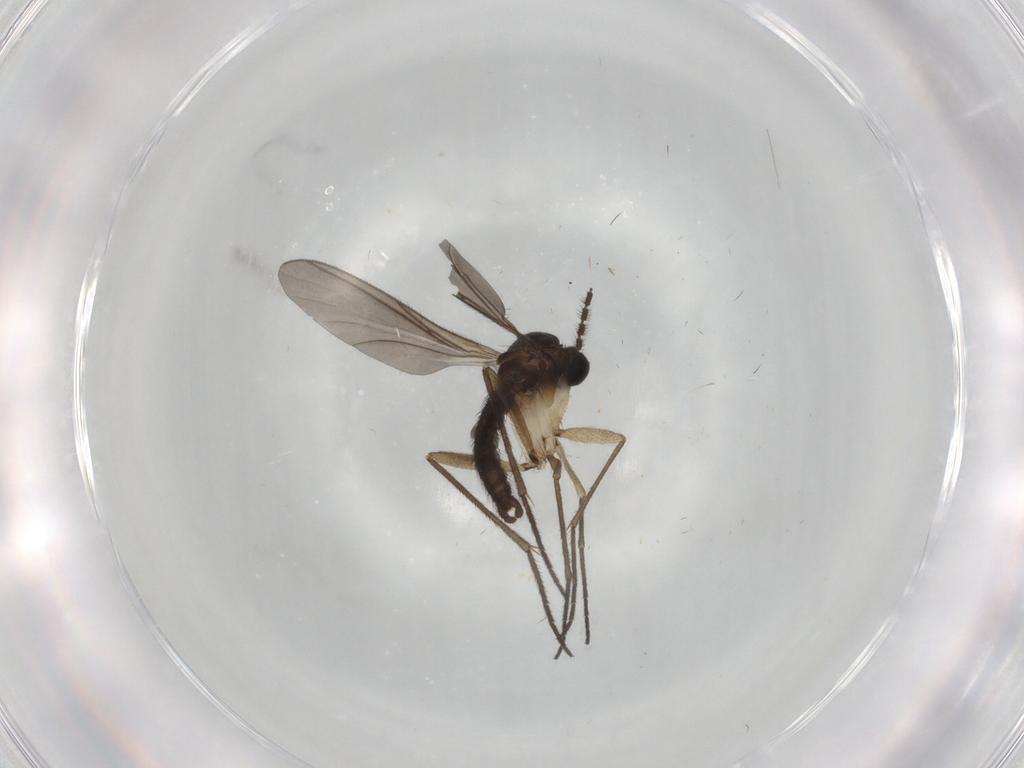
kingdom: Animalia
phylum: Arthropoda
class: Insecta
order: Diptera
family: Sciaridae
